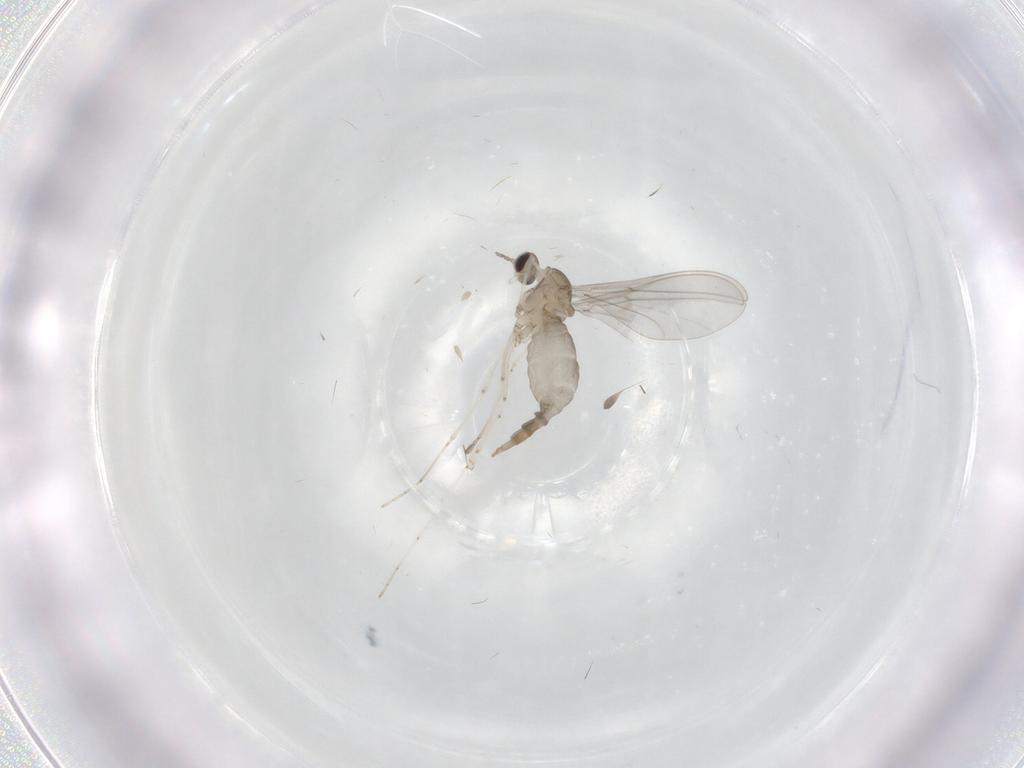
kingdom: Animalia
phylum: Arthropoda
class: Insecta
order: Diptera
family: Limoniidae
